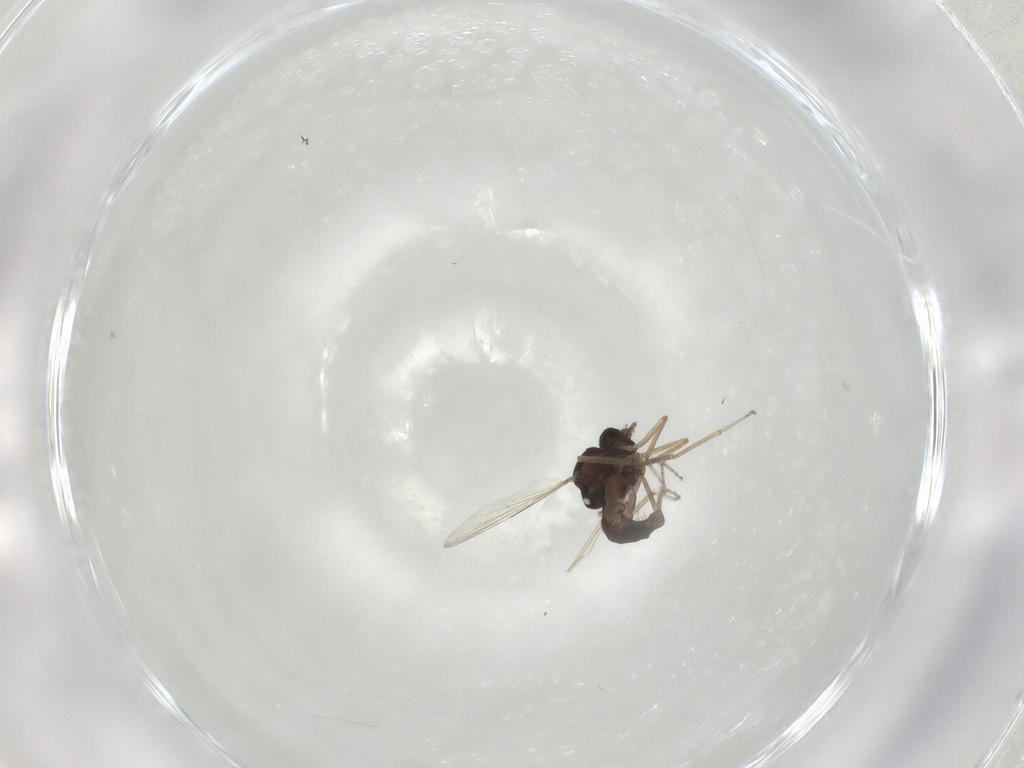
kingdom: Animalia
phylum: Arthropoda
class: Insecta
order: Diptera
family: Ceratopogonidae
